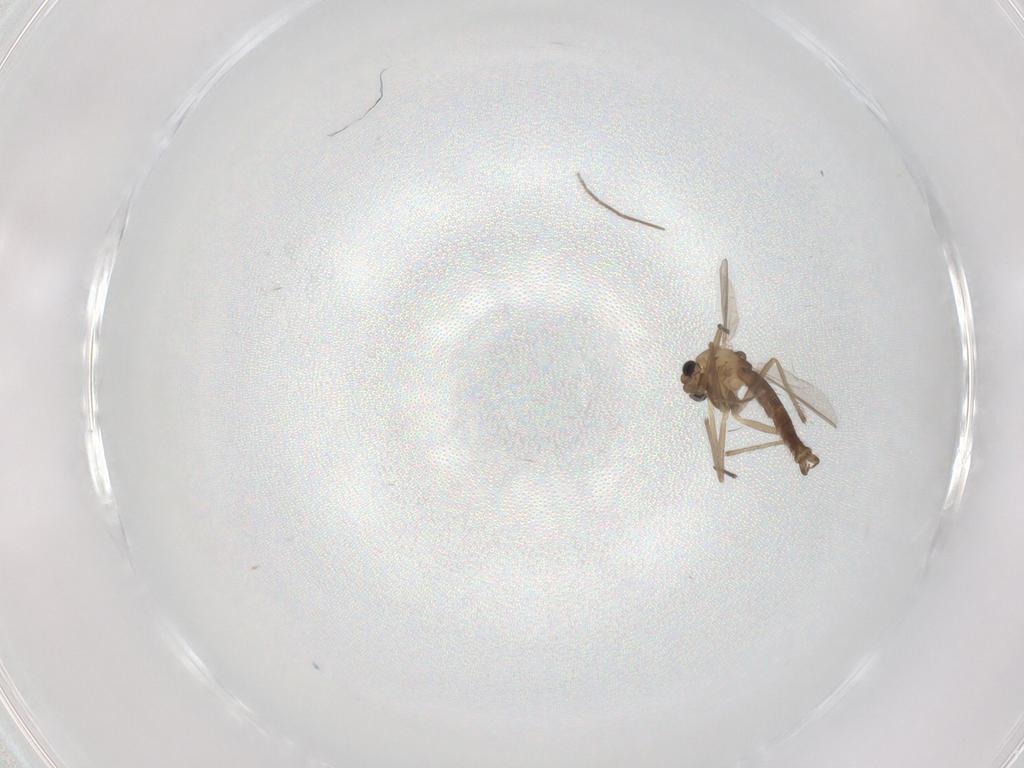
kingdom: Animalia
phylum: Arthropoda
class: Insecta
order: Diptera
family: Chironomidae
